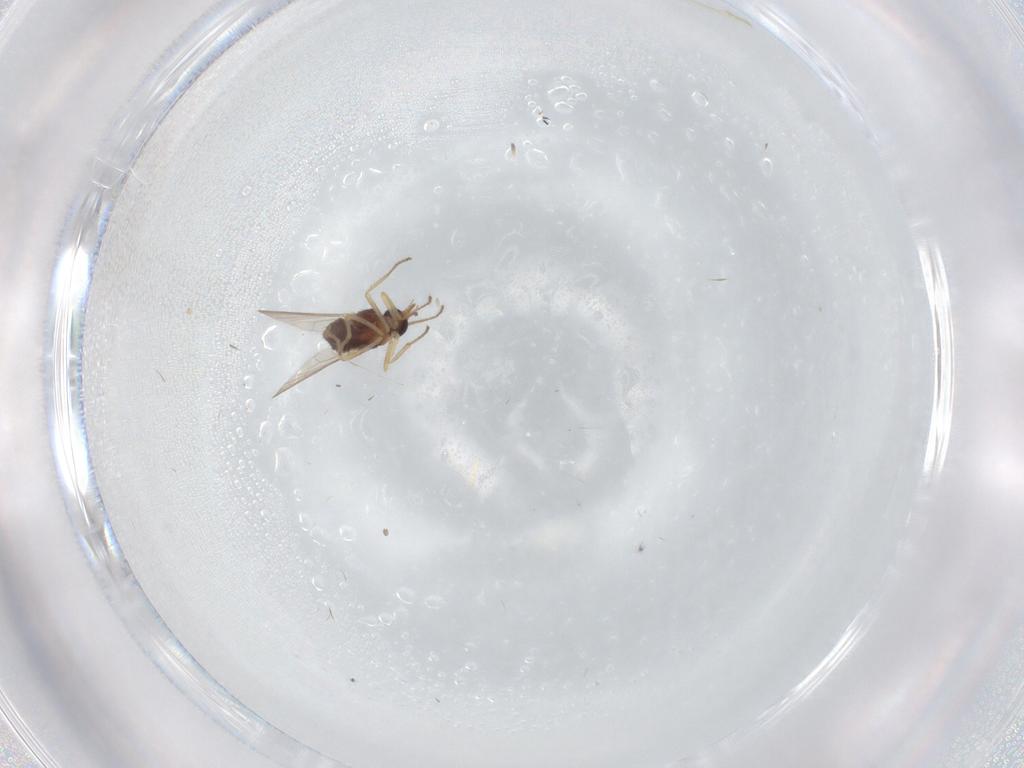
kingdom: Animalia
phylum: Arthropoda
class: Insecta
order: Diptera
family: Ceratopogonidae
